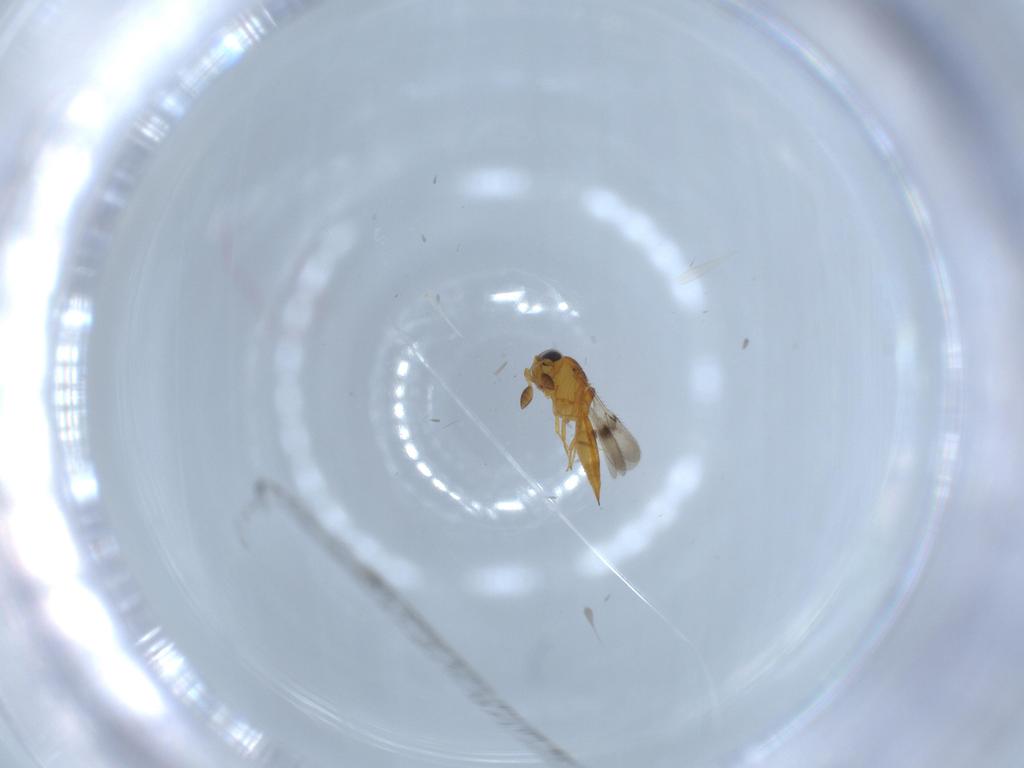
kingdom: Animalia
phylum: Arthropoda
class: Insecta
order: Hymenoptera
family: Scelionidae
